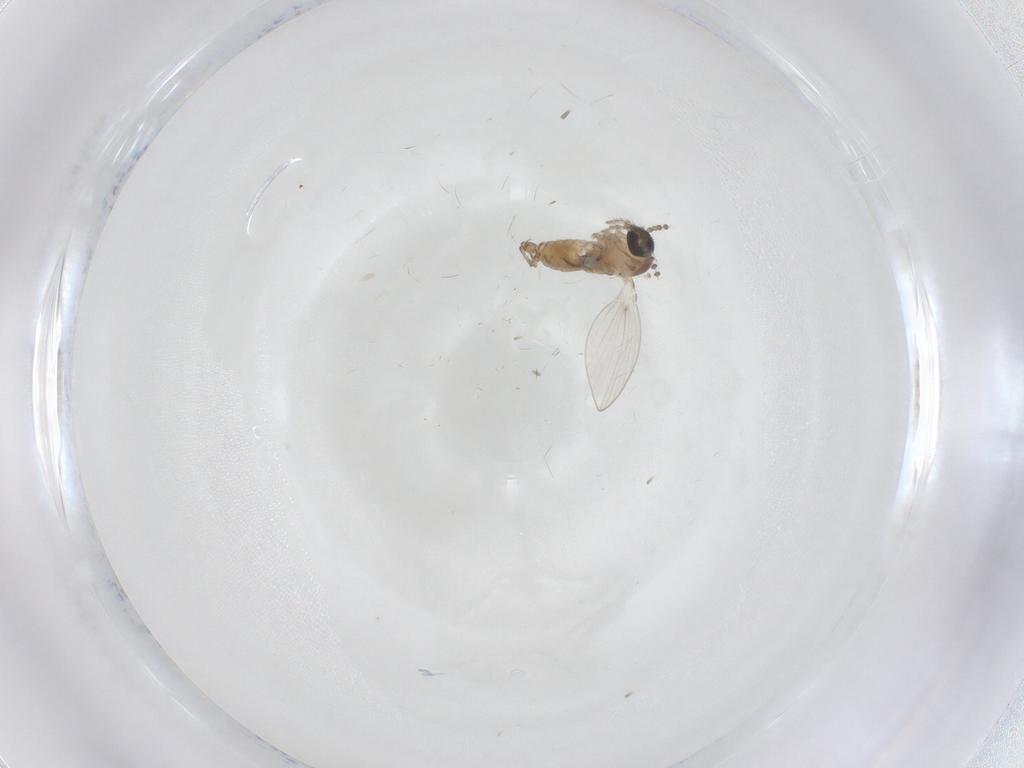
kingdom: Animalia
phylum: Arthropoda
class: Insecta
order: Diptera
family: Psychodidae
